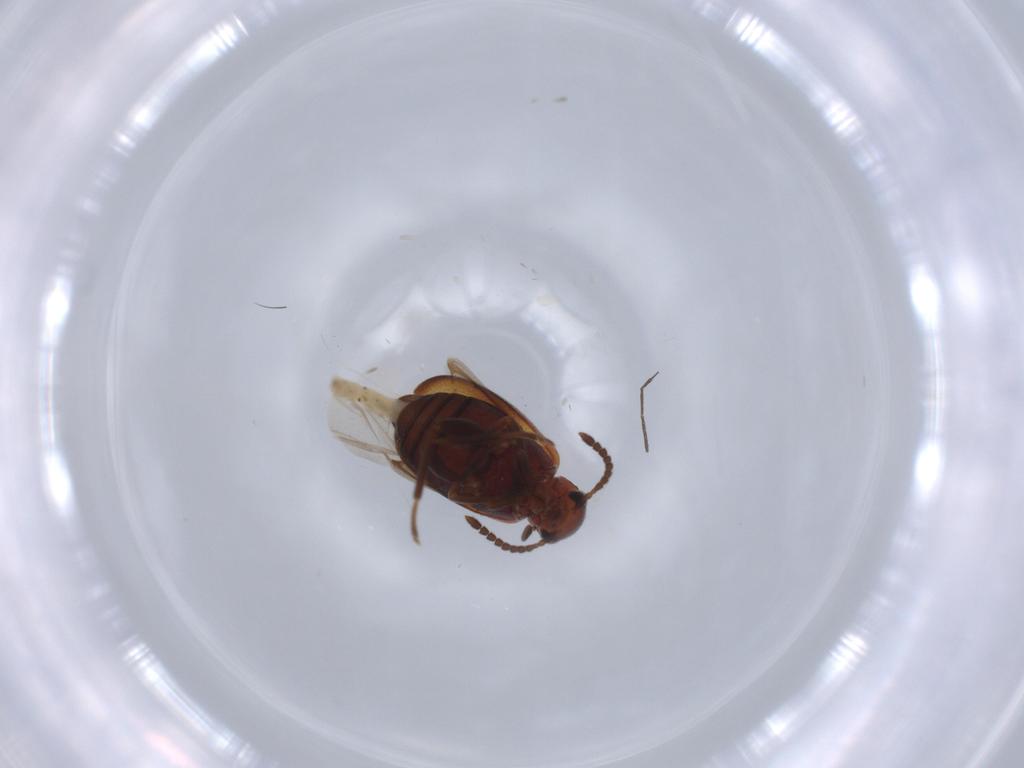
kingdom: Animalia
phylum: Arthropoda
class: Insecta
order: Coleoptera
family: Aderidae
